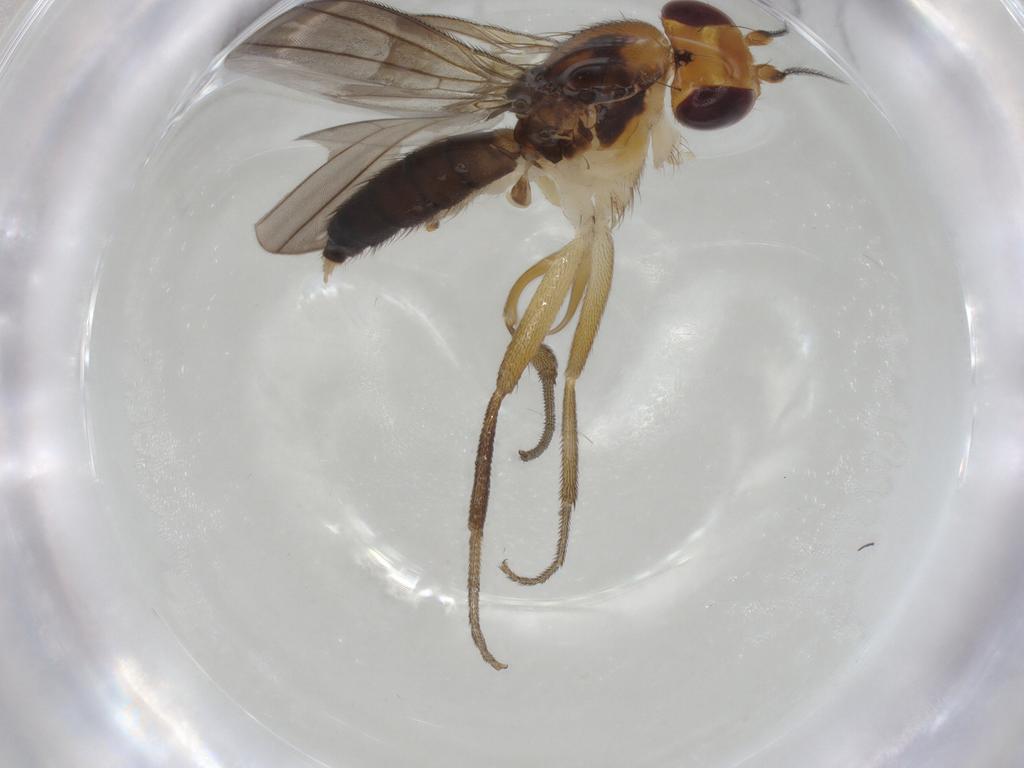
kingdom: Animalia
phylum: Arthropoda
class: Insecta
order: Diptera
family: Clusiidae
